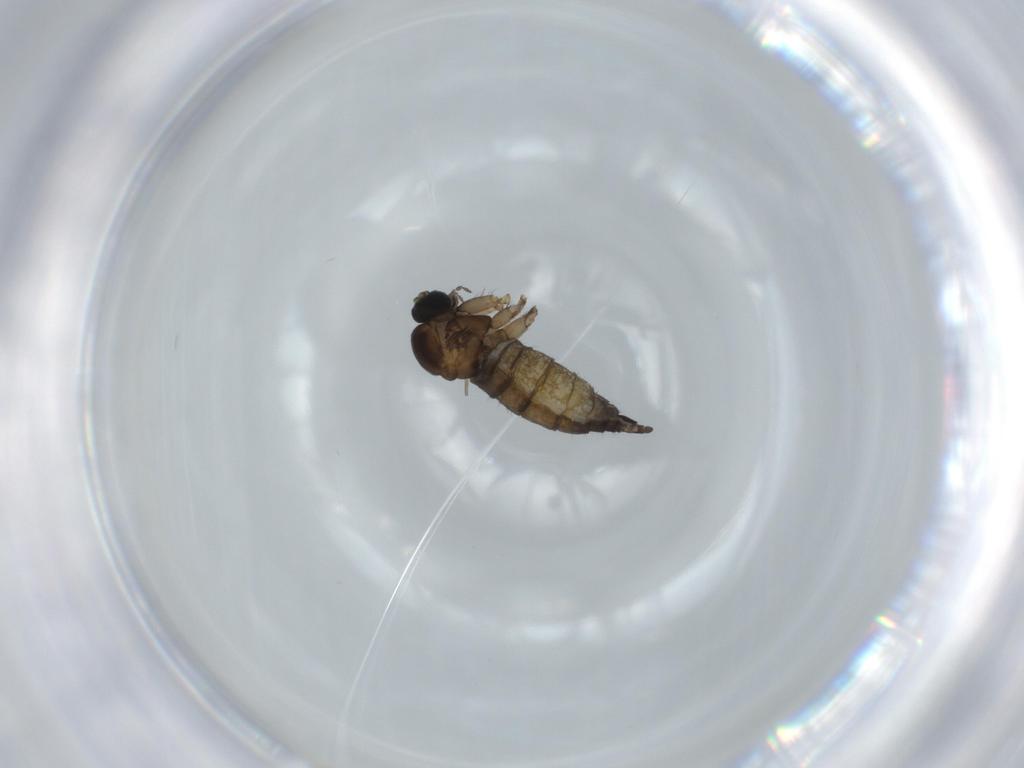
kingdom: Animalia
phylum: Arthropoda
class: Insecta
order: Diptera
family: Sciaridae
